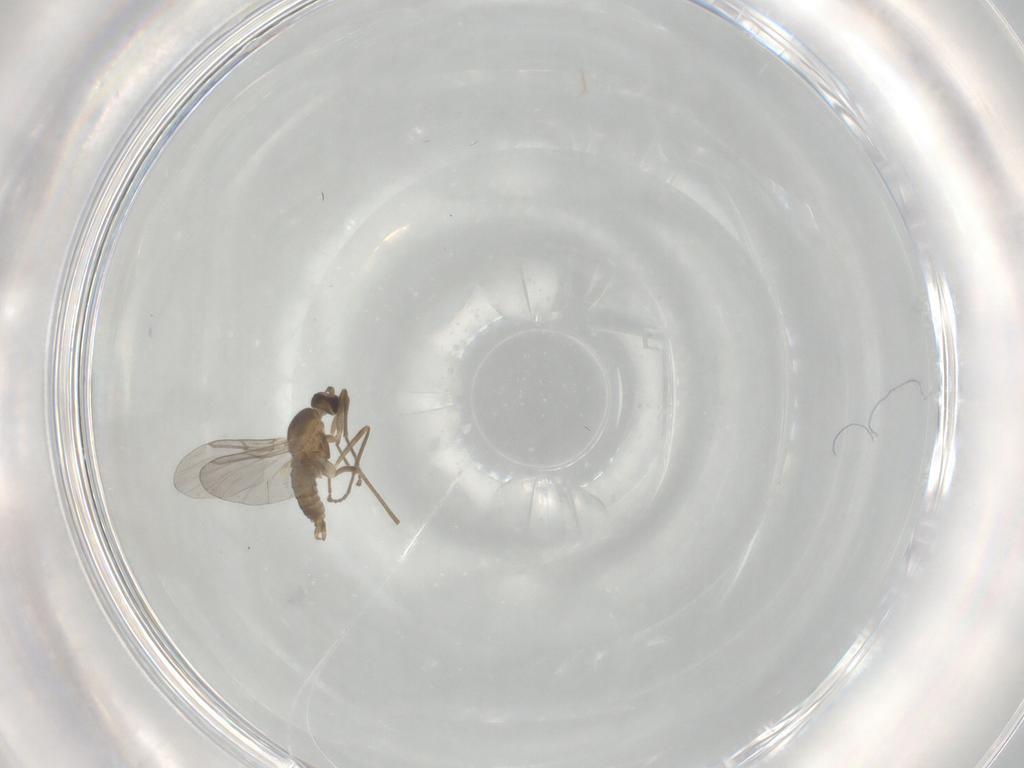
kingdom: Animalia
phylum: Arthropoda
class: Insecta
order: Diptera
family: Cecidomyiidae
